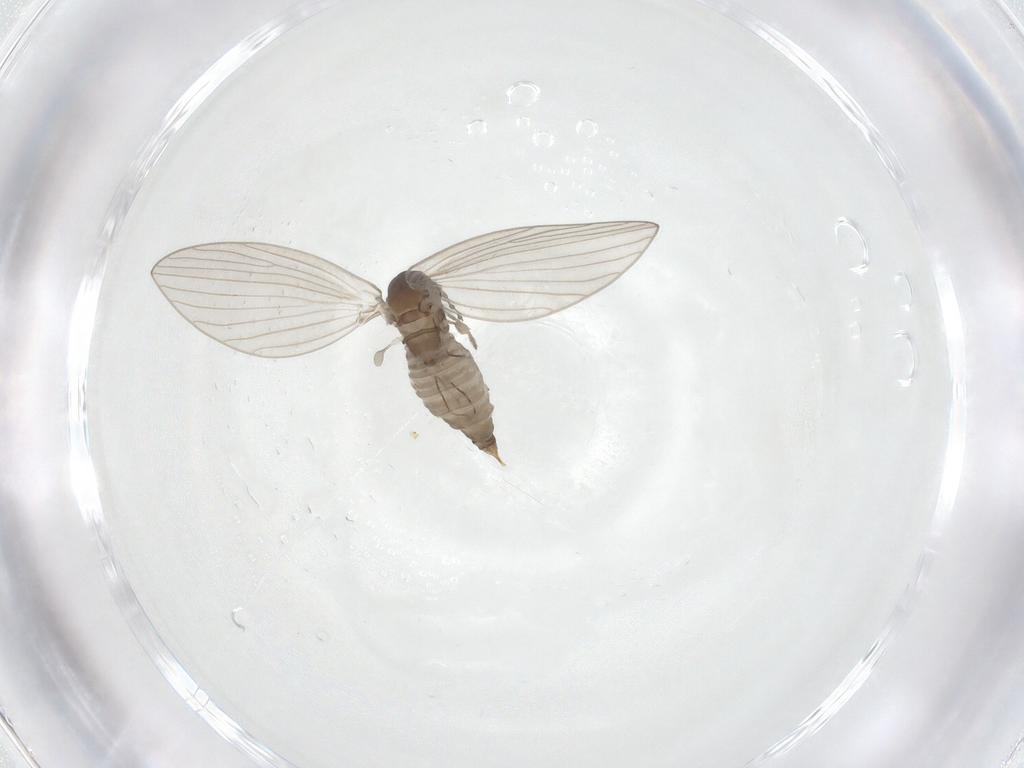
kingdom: Animalia
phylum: Arthropoda
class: Insecta
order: Diptera
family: Psychodidae
